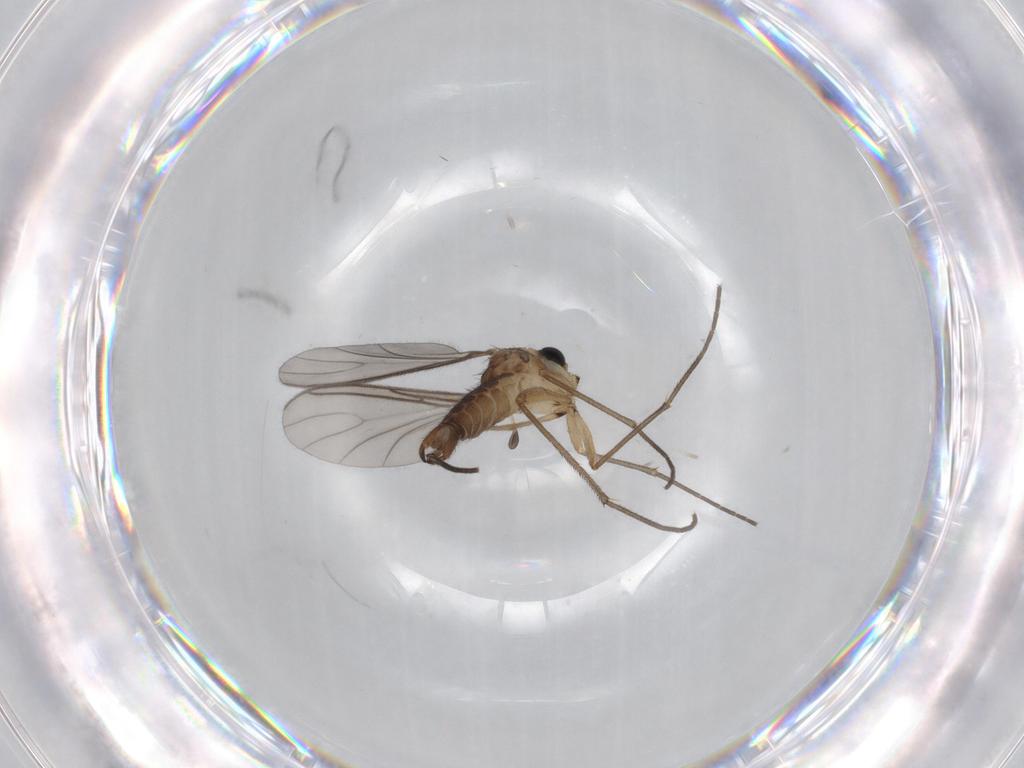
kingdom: Animalia
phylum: Arthropoda
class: Insecta
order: Diptera
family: Sciaridae
